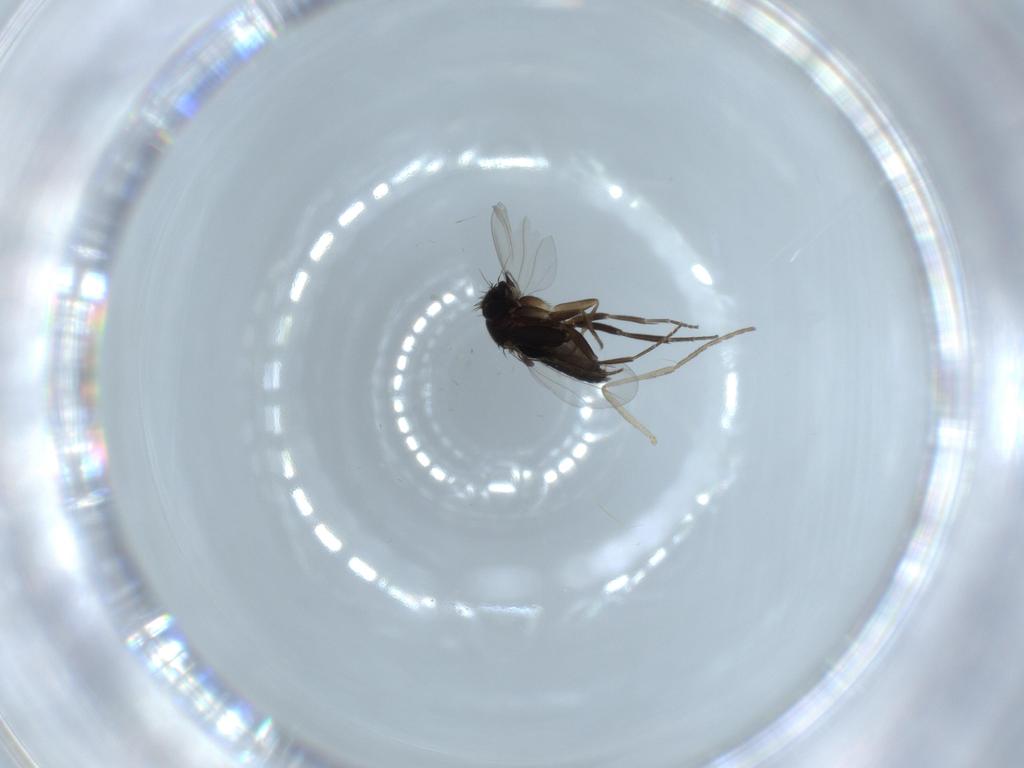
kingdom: Animalia
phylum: Arthropoda
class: Insecta
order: Diptera
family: Phoridae
